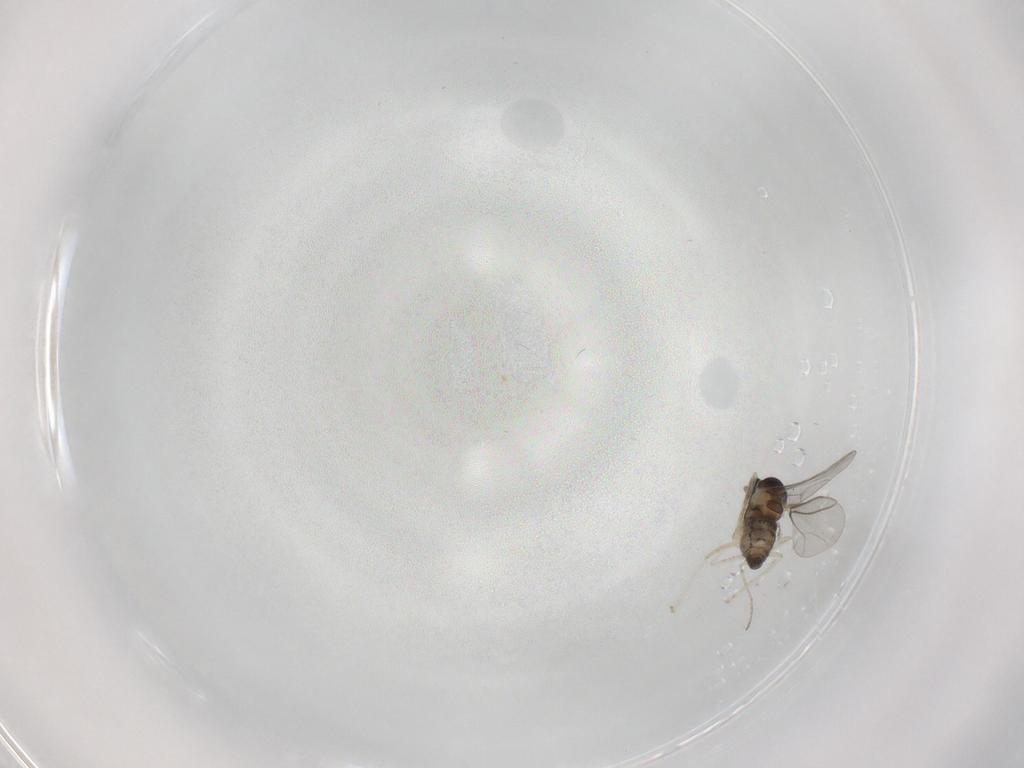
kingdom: Animalia
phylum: Arthropoda
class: Insecta
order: Diptera
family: Cecidomyiidae
